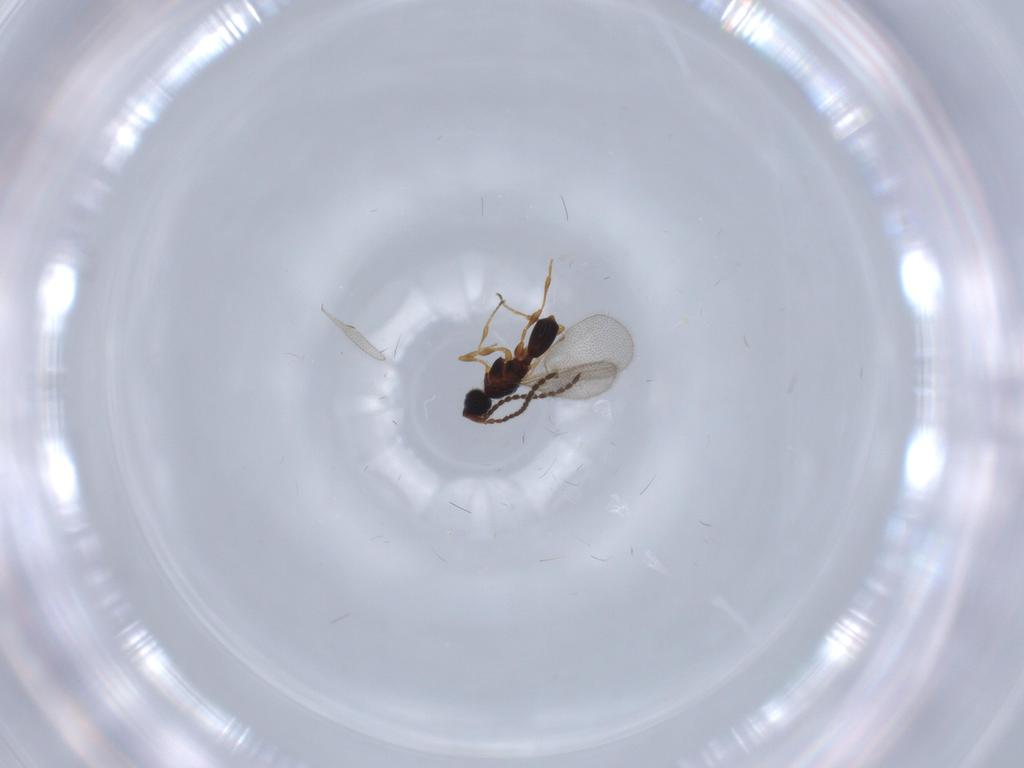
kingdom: Animalia
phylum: Arthropoda
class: Insecta
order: Hymenoptera
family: Diapriidae
